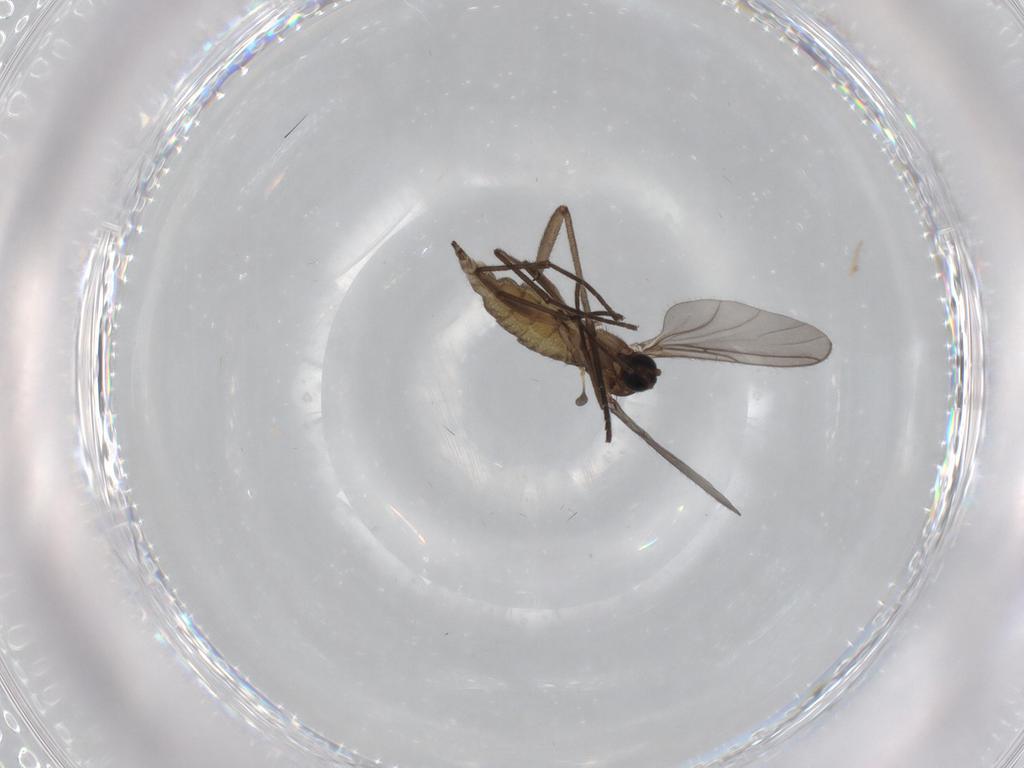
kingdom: Animalia
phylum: Arthropoda
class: Insecta
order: Diptera
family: Sciaridae
